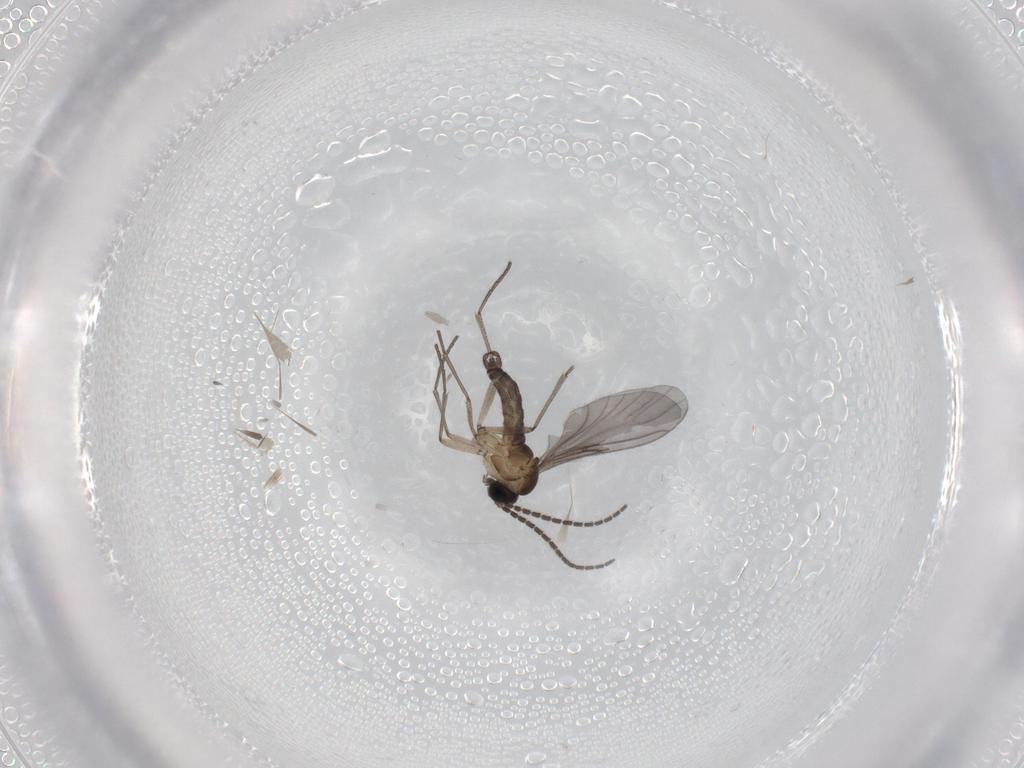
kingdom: Animalia
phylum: Arthropoda
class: Insecta
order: Diptera
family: Sciaridae
